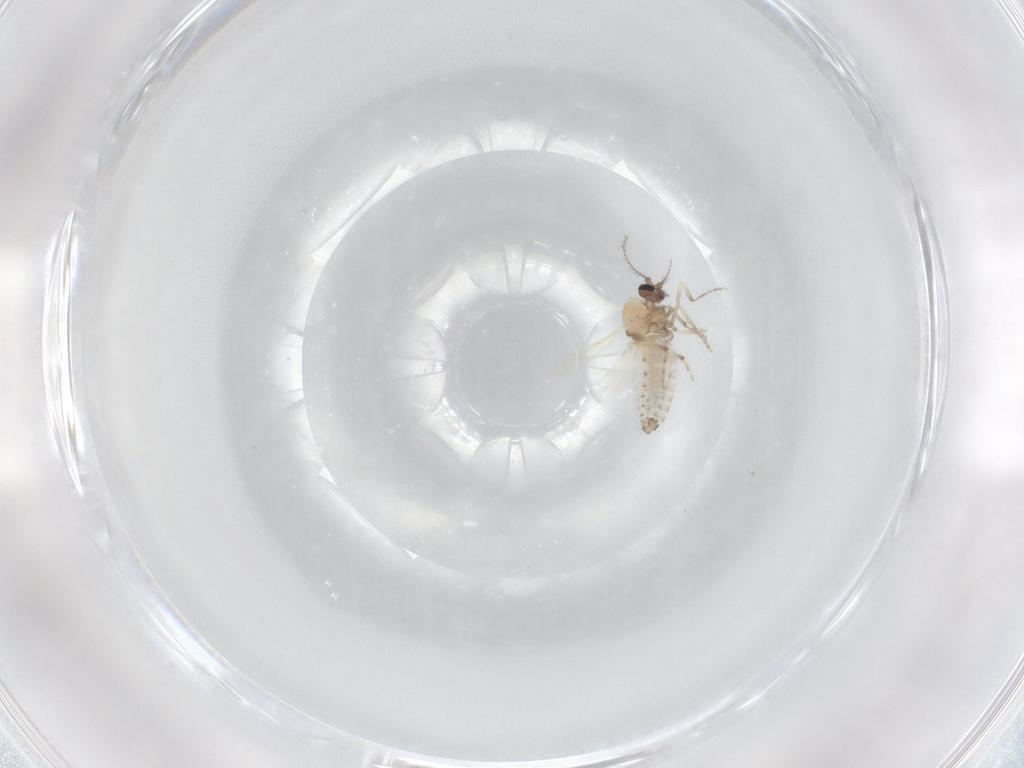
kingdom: Animalia
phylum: Arthropoda
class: Insecta
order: Diptera
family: Ceratopogonidae
